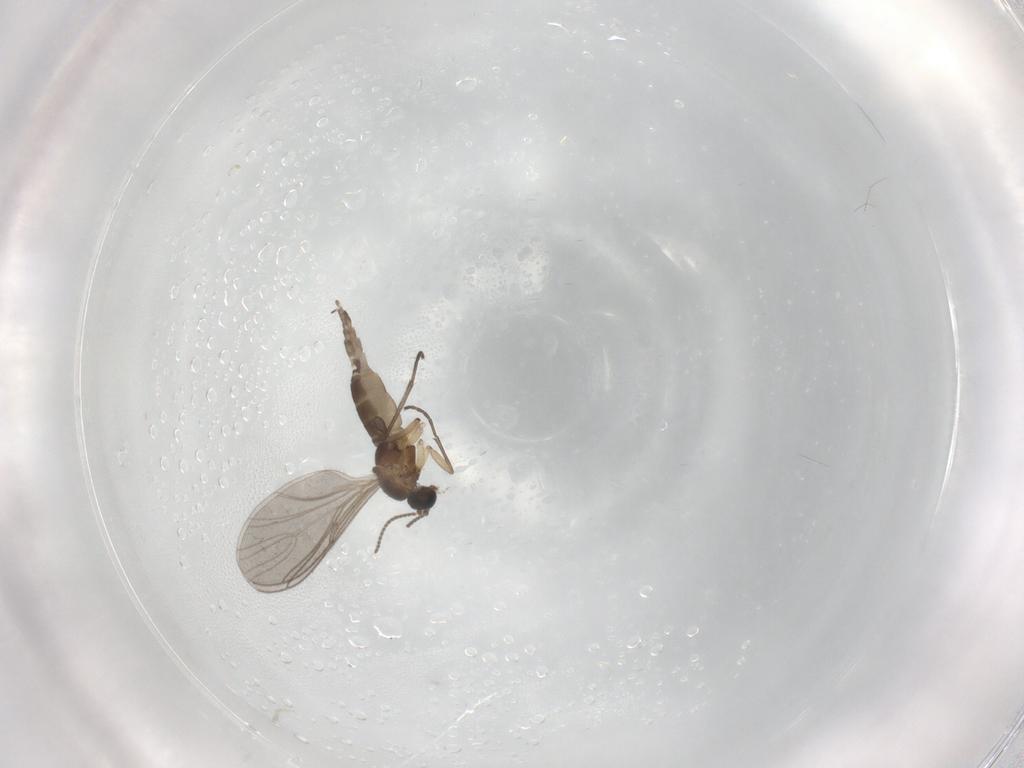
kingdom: Animalia
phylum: Arthropoda
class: Insecta
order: Diptera
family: Sciaridae
